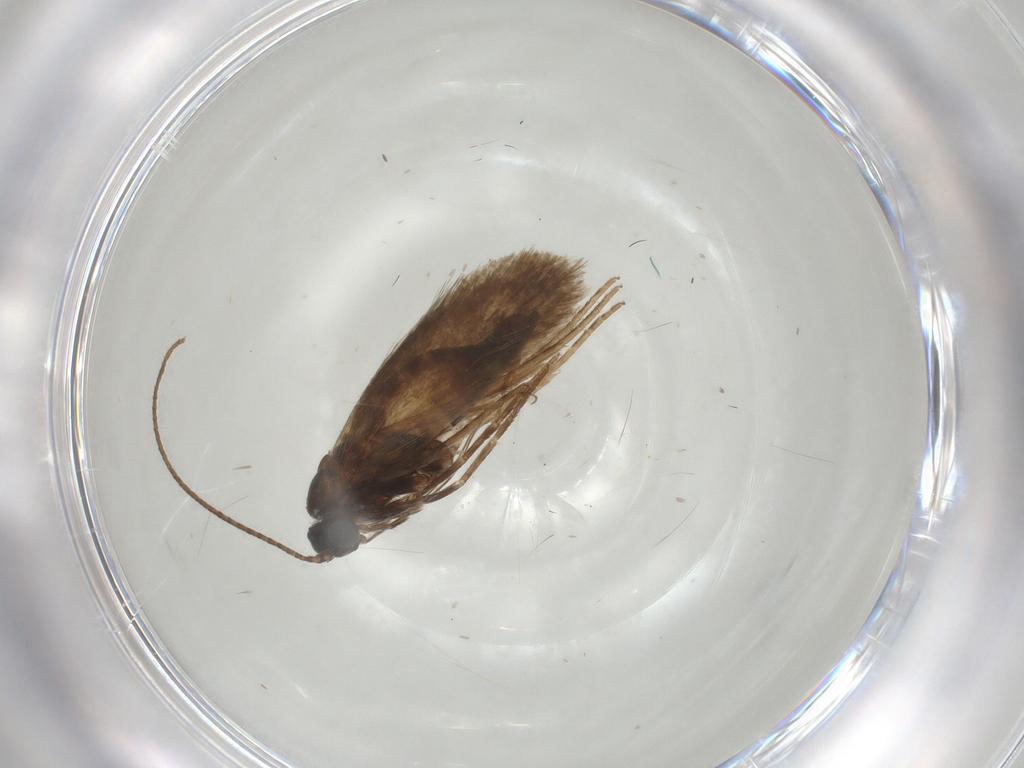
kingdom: Animalia
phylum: Arthropoda
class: Insecta
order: Lepidoptera
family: Adelidae
